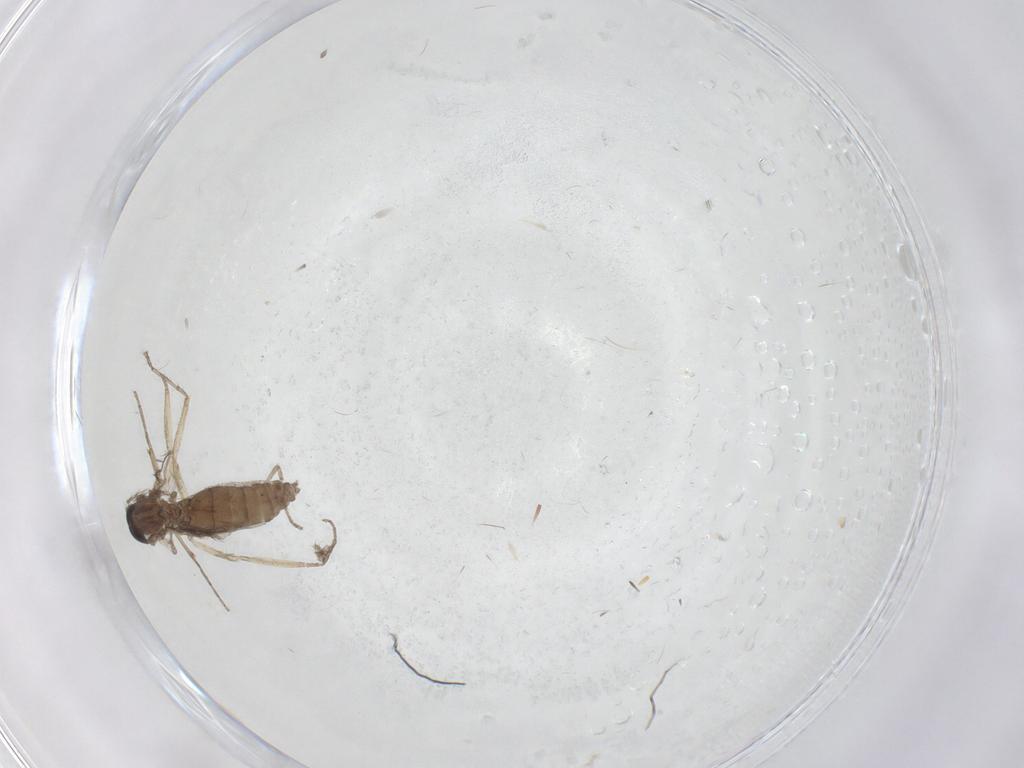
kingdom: Animalia
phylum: Arthropoda
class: Insecta
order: Diptera
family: Ceratopogonidae
